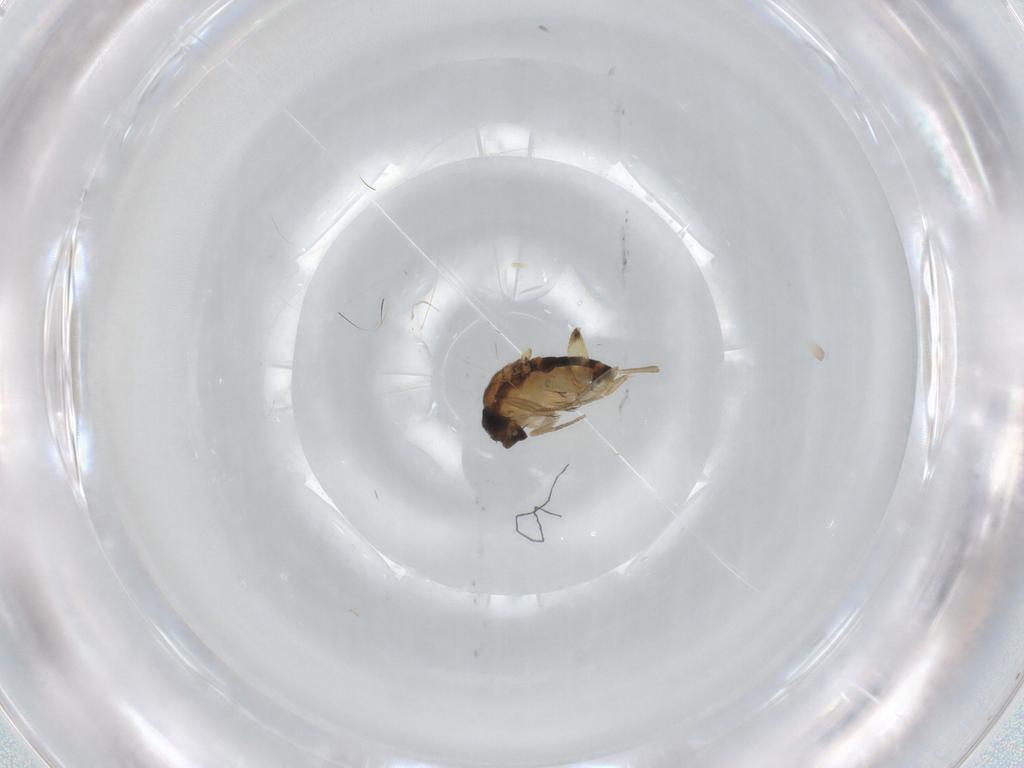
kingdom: Animalia
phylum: Arthropoda
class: Insecta
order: Diptera
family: Phoridae
